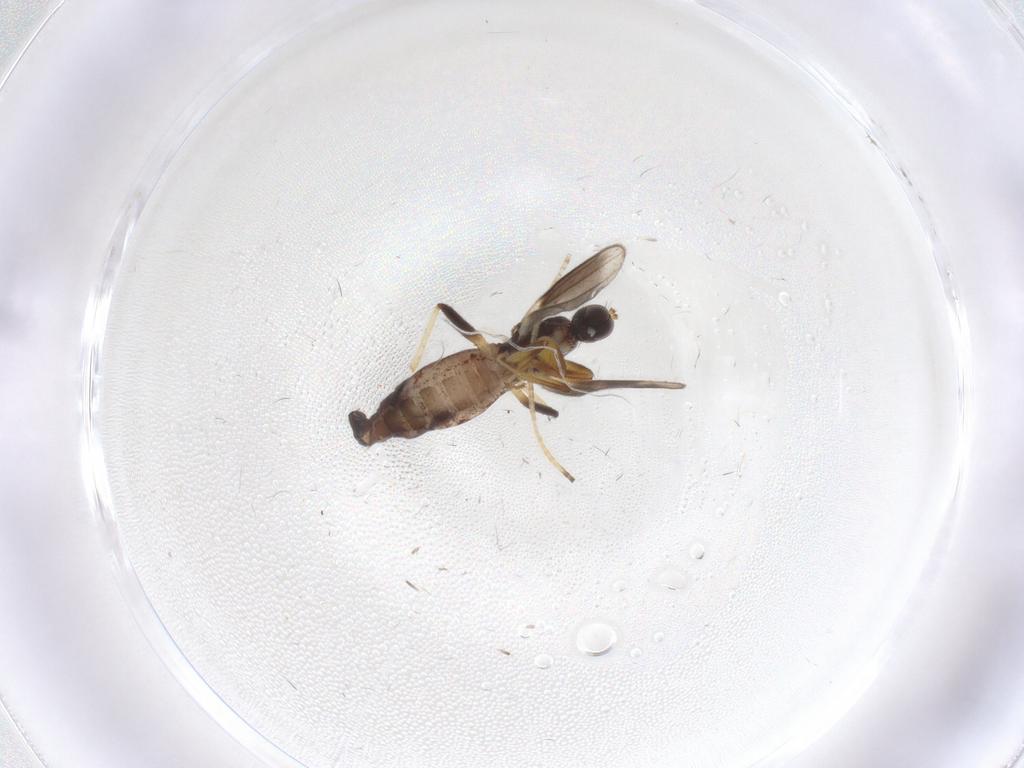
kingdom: Animalia
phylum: Arthropoda
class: Insecta
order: Diptera
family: Hybotidae
